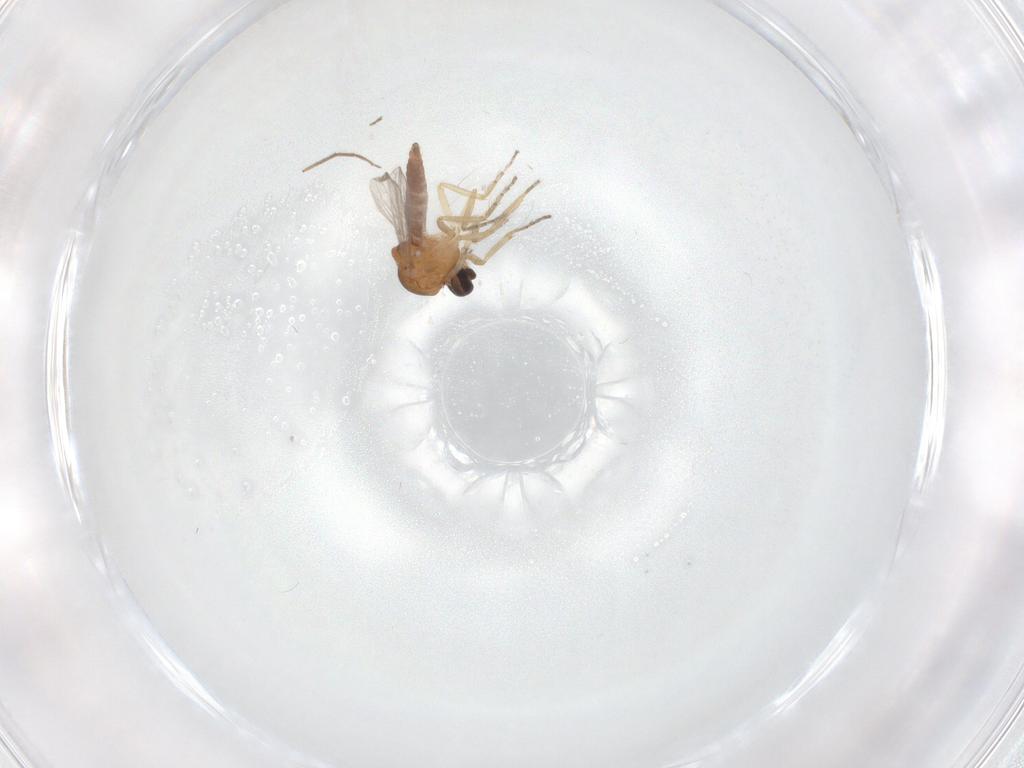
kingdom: Animalia
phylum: Arthropoda
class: Insecta
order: Diptera
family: Ceratopogonidae
